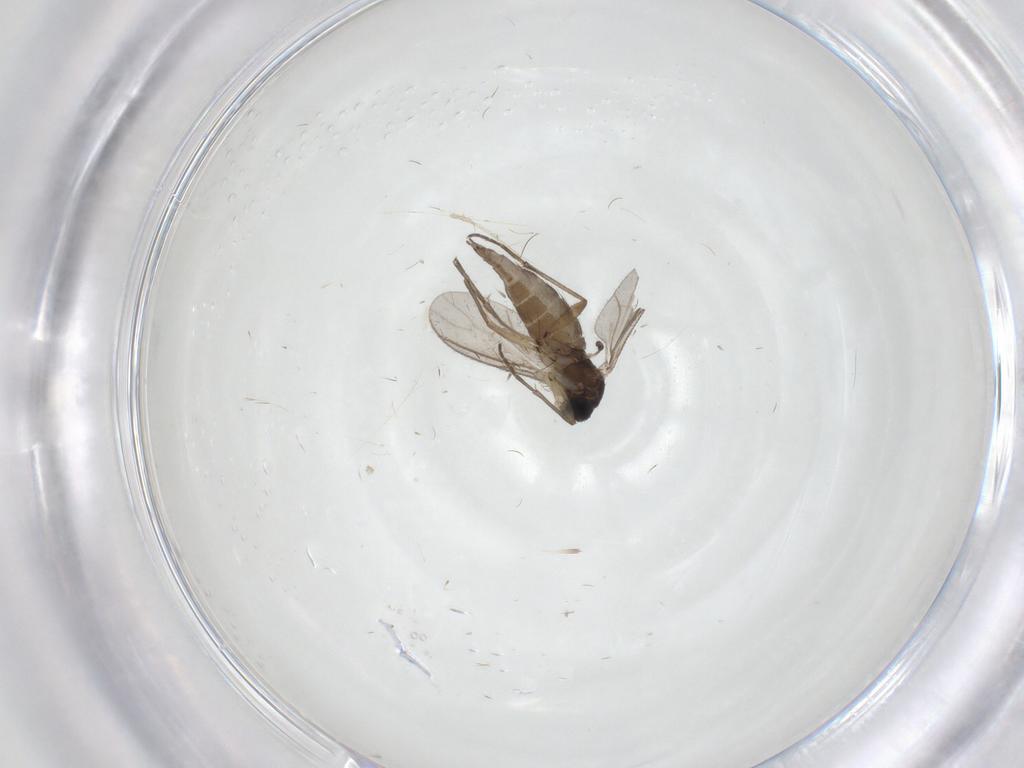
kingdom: Animalia
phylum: Arthropoda
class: Insecta
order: Diptera
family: Sciaridae
